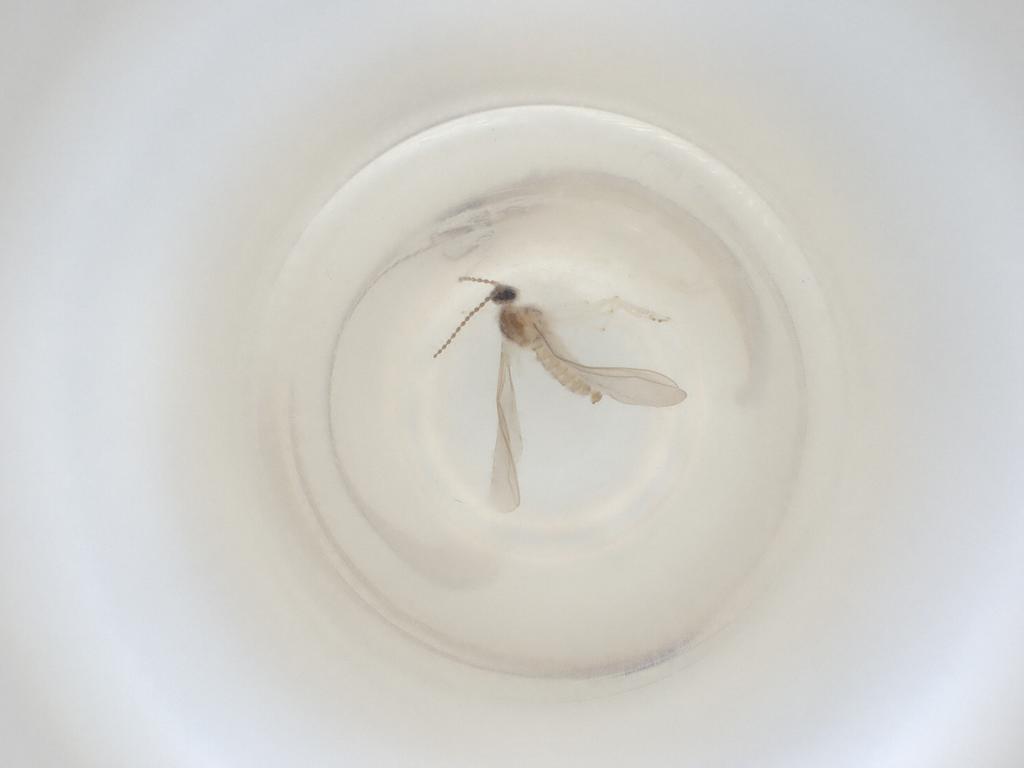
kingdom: Animalia
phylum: Arthropoda
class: Insecta
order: Diptera
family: Cecidomyiidae
